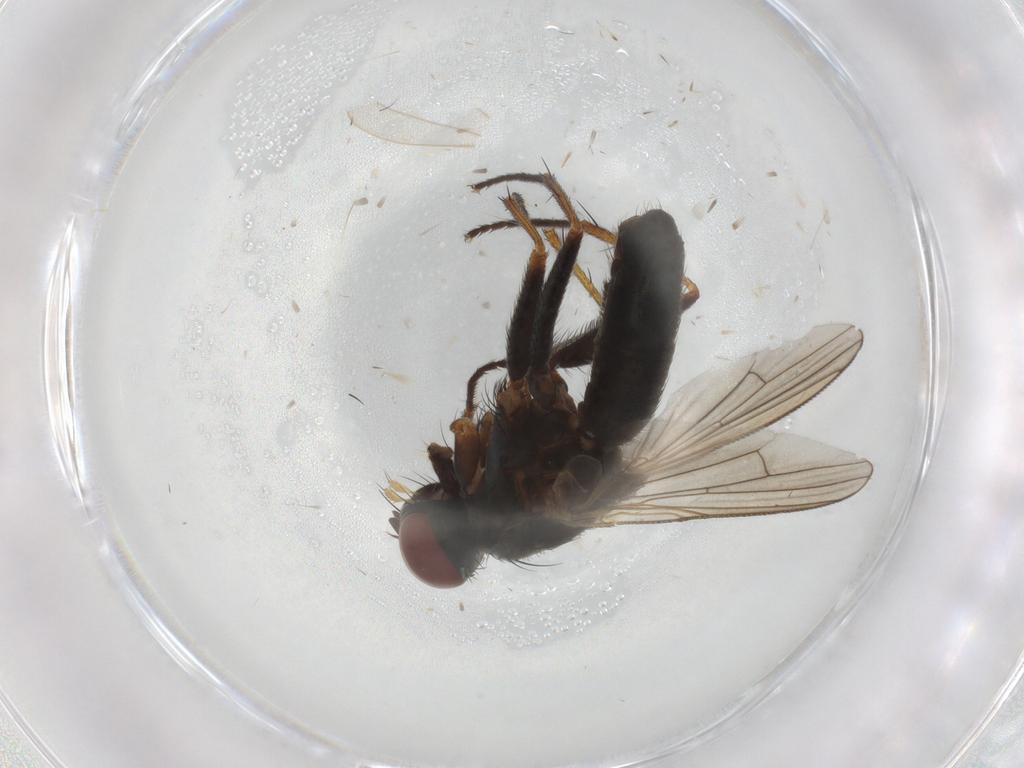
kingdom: Animalia
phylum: Arthropoda
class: Insecta
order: Diptera
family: Muscidae
